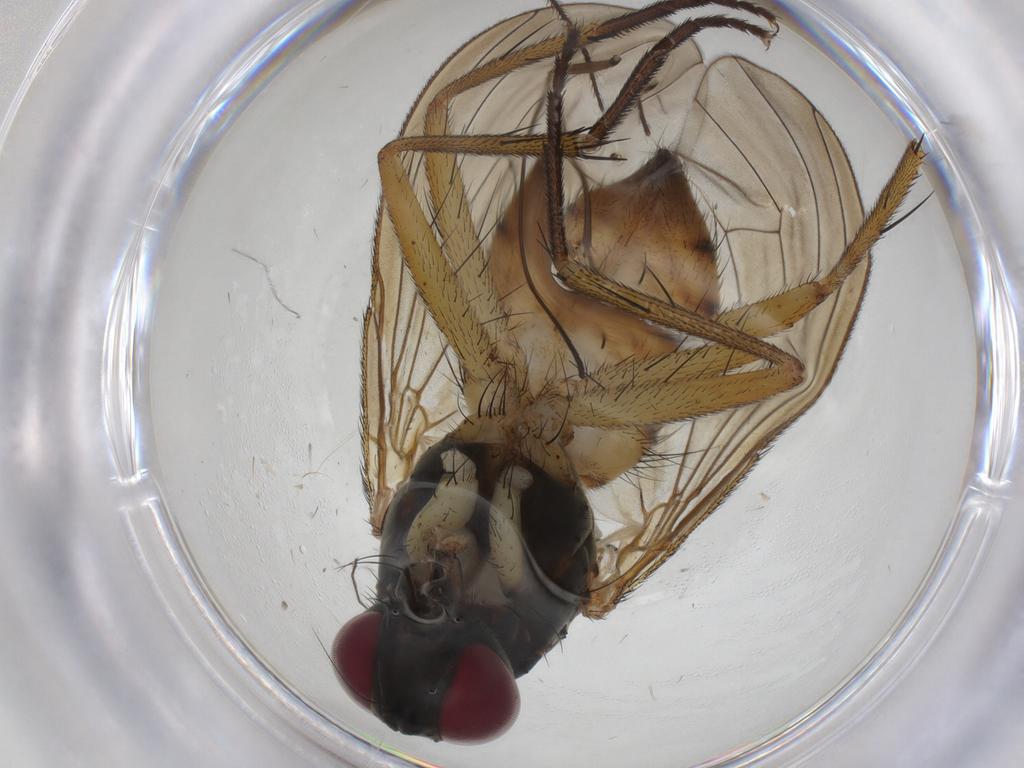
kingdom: Animalia
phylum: Arthropoda
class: Insecta
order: Diptera
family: Muscidae
